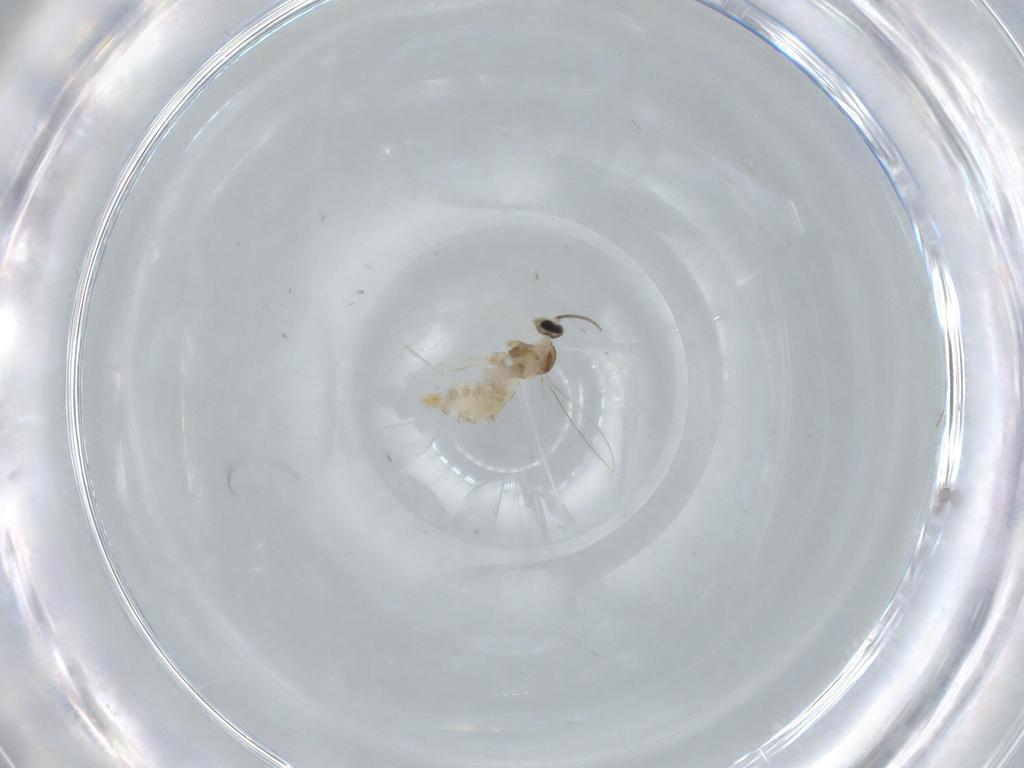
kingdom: Animalia
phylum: Arthropoda
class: Insecta
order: Diptera
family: Cecidomyiidae
